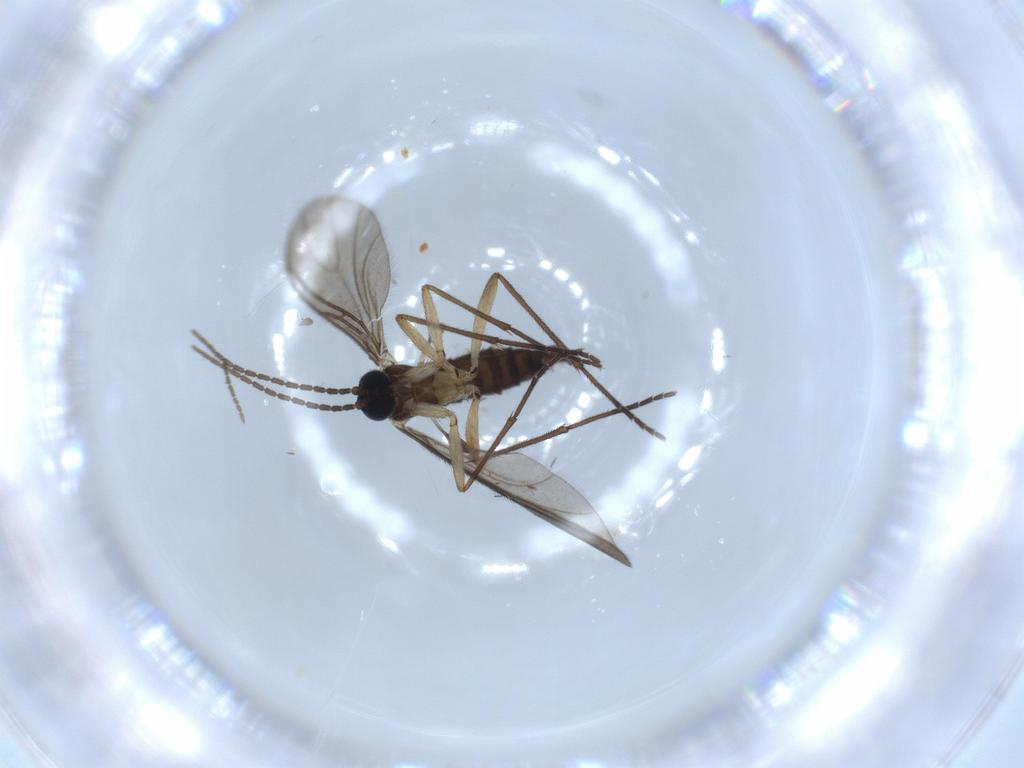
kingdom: Animalia
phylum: Arthropoda
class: Insecta
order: Diptera
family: Sciaridae
